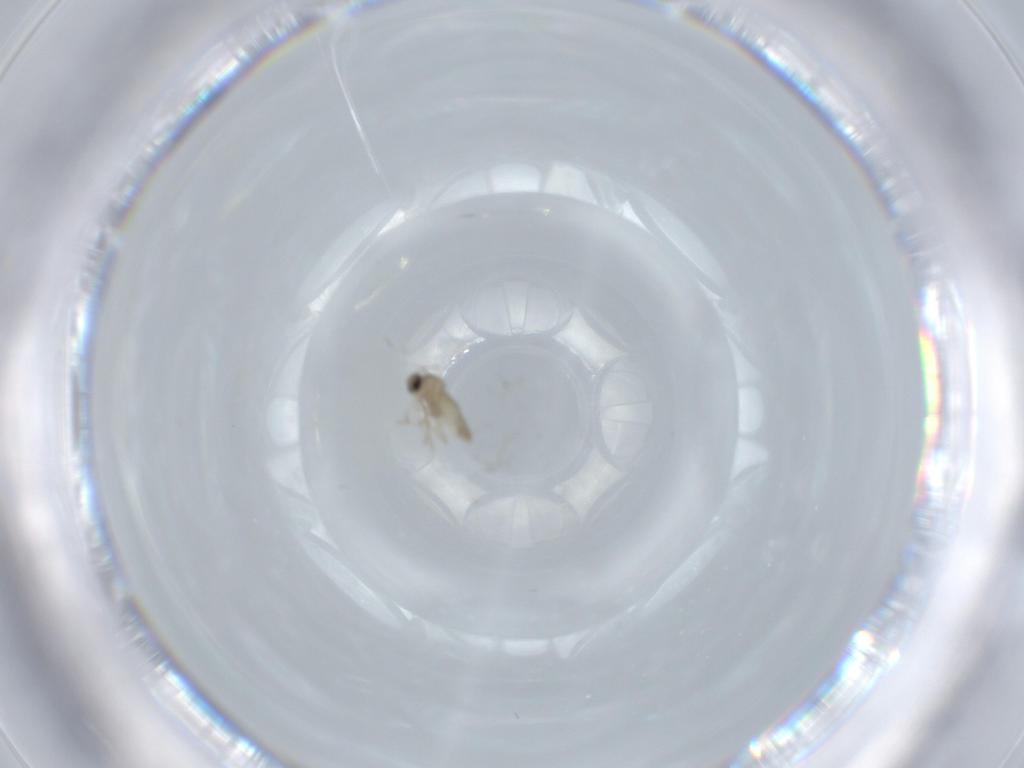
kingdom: Animalia
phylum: Arthropoda
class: Insecta
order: Diptera
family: Cecidomyiidae
